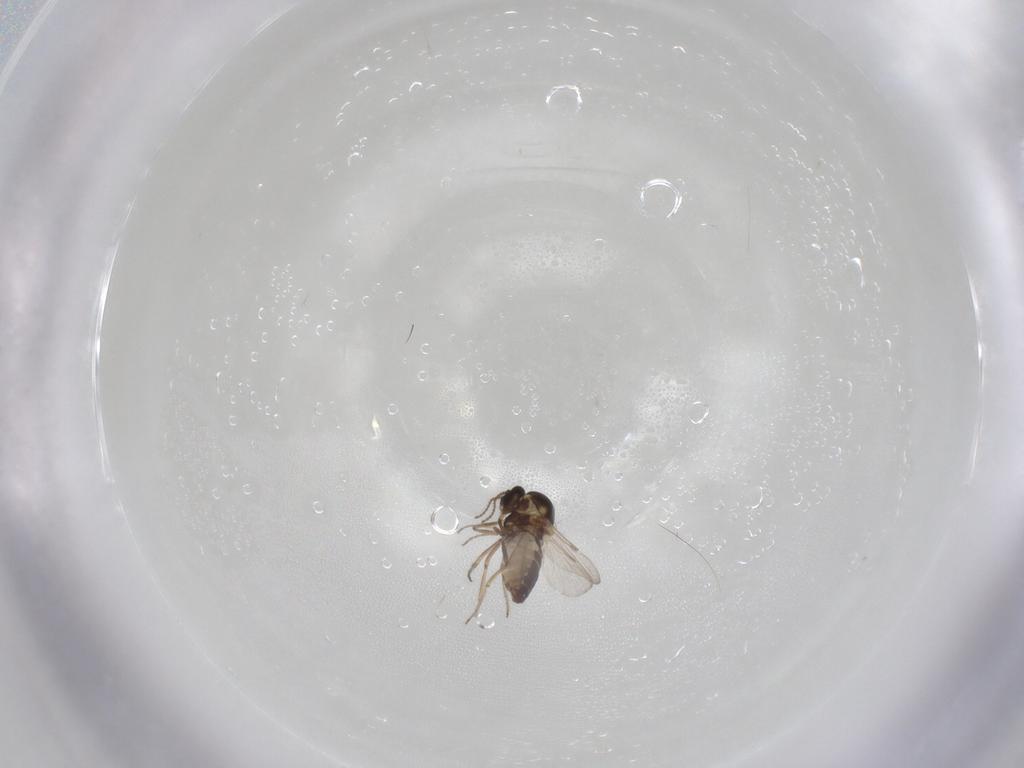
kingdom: Animalia
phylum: Arthropoda
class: Insecta
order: Diptera
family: Ceratopogonidae
